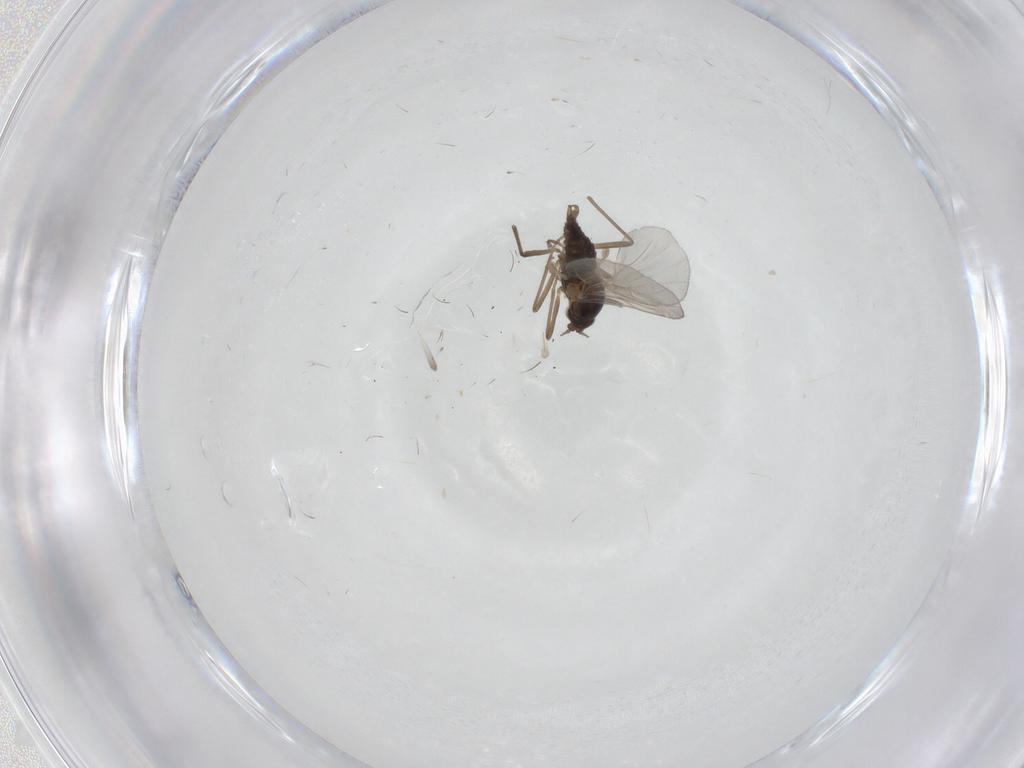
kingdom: Animalia
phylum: Arthropoda
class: Insecta
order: Diptera
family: Cecidomyiidae
